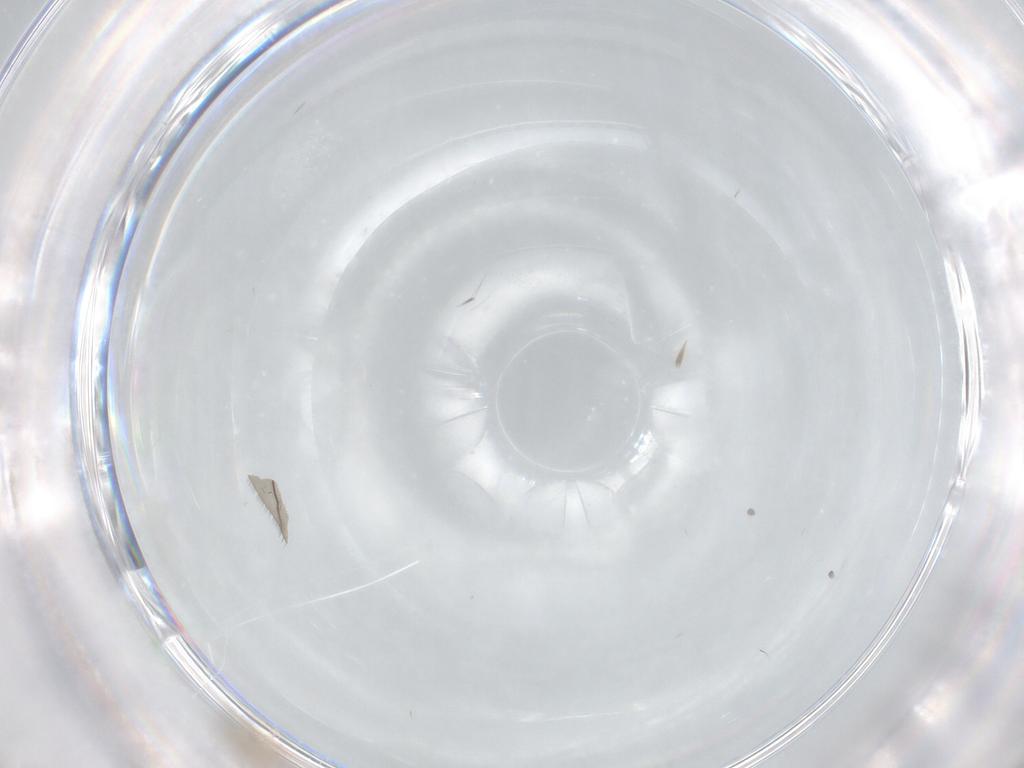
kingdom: Animalia
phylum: Arthropoda
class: Insecta
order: Hymenoptera
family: Mymaridae
